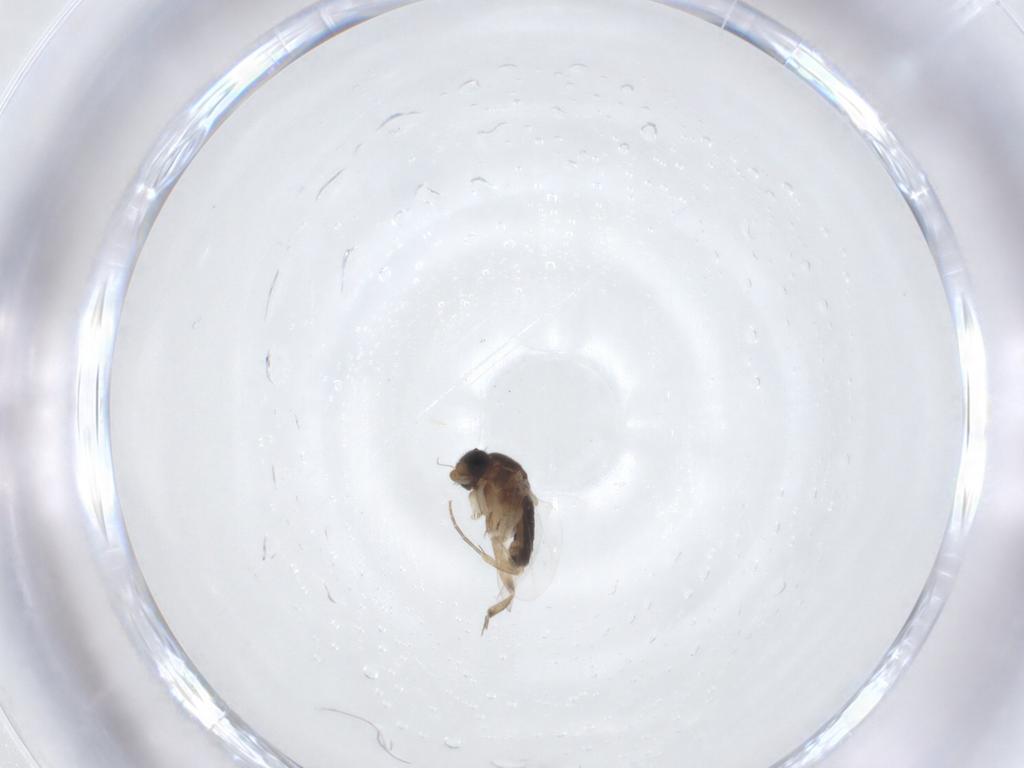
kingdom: Animalia
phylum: Arthropoda
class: Insecta
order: Diptera
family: Phoridae
